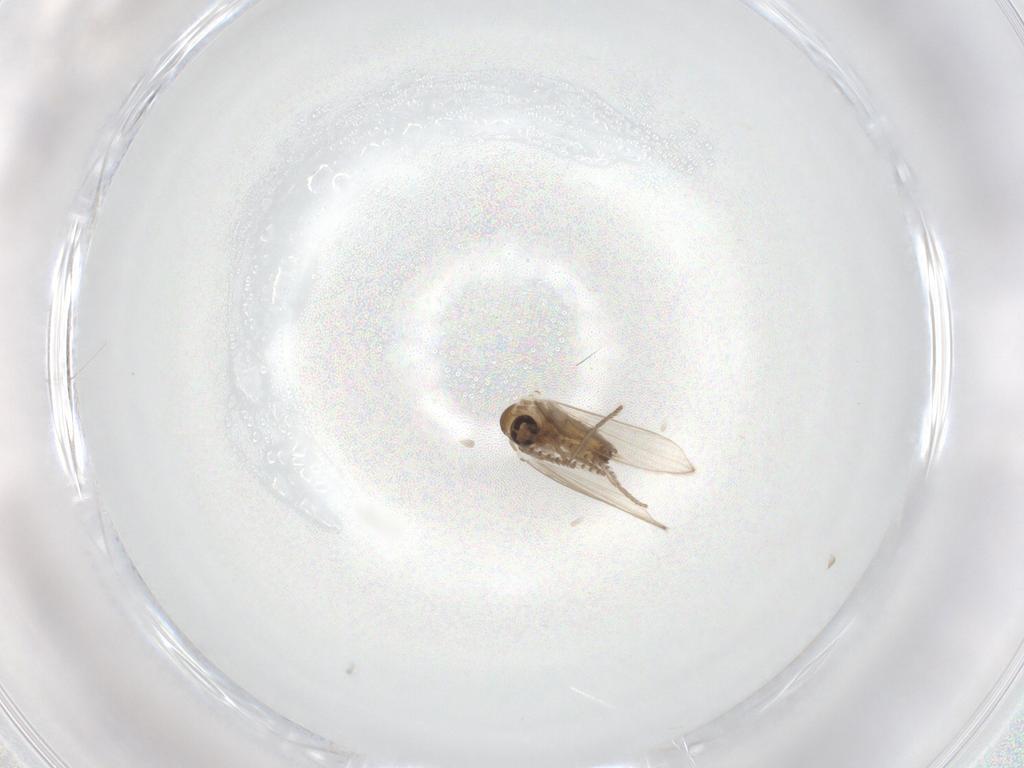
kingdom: Animalia
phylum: Arthropoda
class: Insecta
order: Diptera
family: Psychodidae
